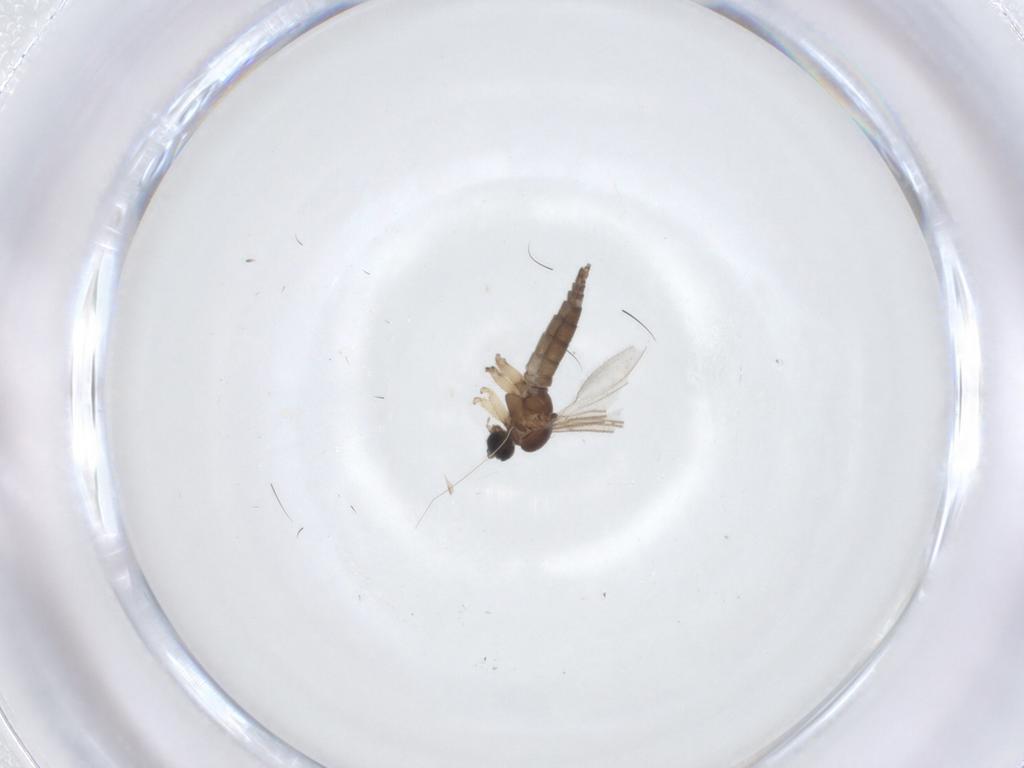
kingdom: Animalia
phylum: Arthropoda
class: Insecta
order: Diptera
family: Sciaridae
